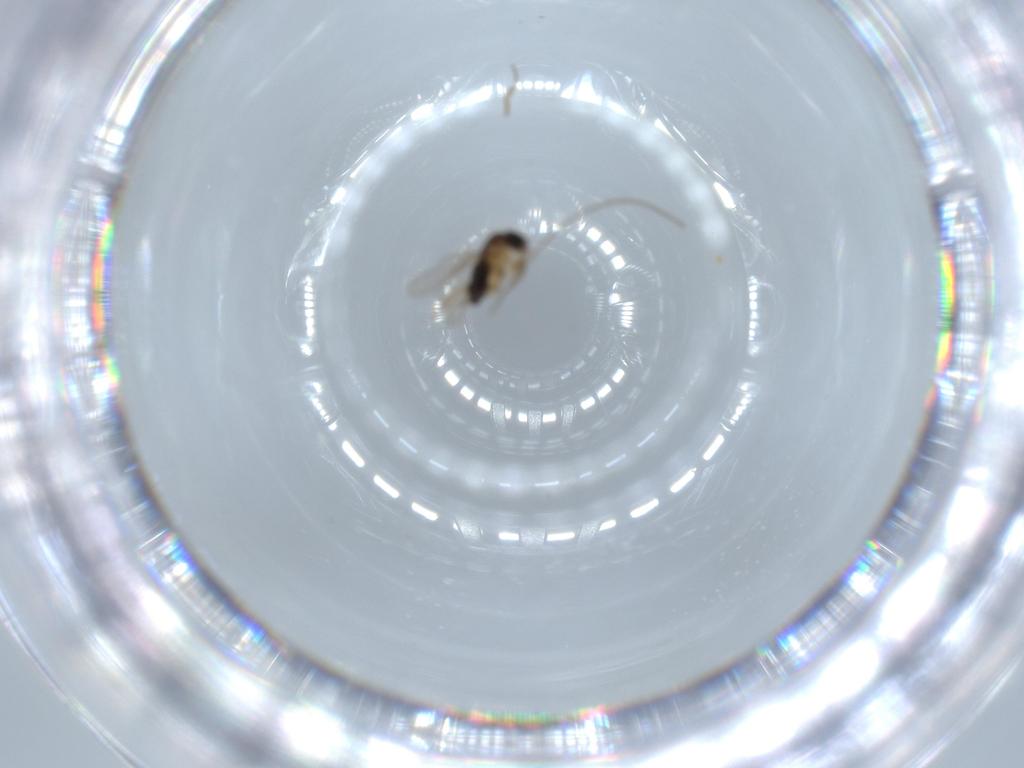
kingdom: Animalia
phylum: Arthropoda
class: Insecta
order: Diptera
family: Phoridae
